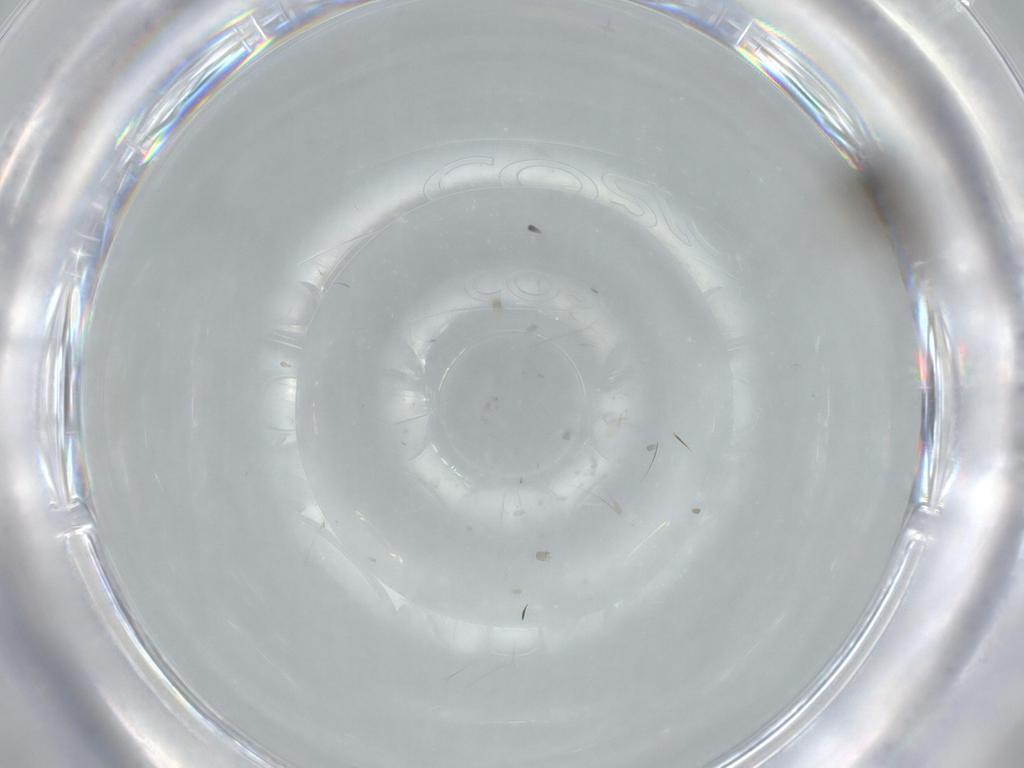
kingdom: Animalia
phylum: Arthropoda
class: Insecta
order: Diptera
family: Phoridae
